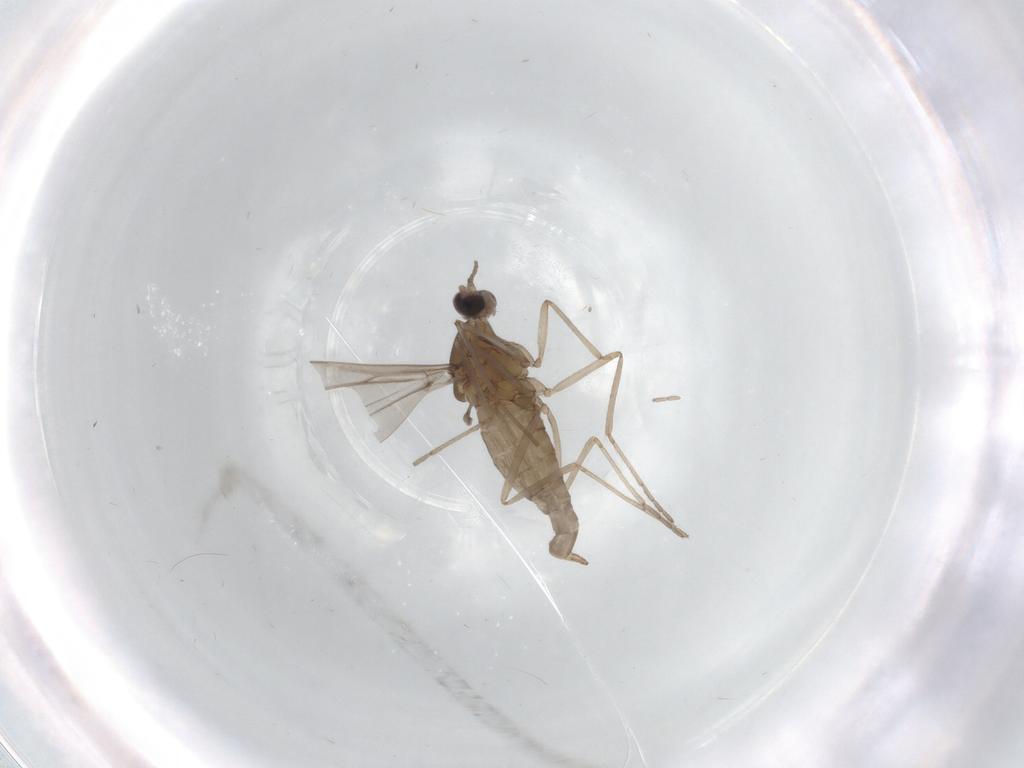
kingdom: Animalia
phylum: Arthropoda
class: Insecta
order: Diptera
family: Cecidomyiidae
